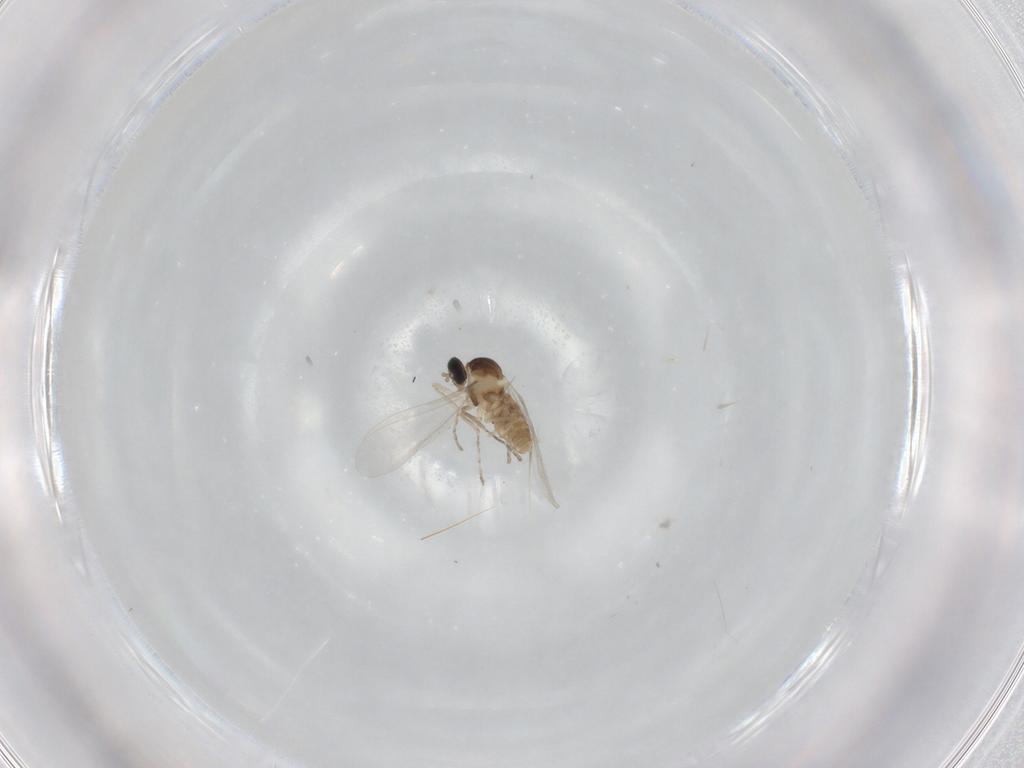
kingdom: Animalia
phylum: Arthropoda
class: Insecta
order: Diptera
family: Cecidomyiidae
